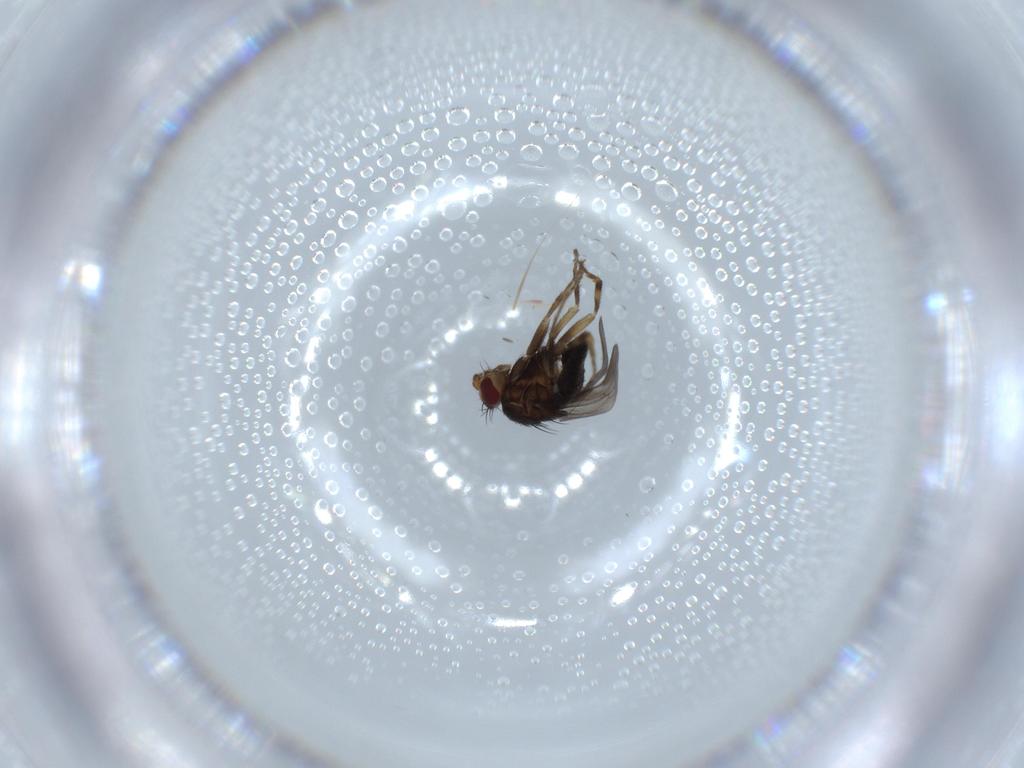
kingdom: Animalia
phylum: Arthropoda
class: Insecta
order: Diptera
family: Sphaeroceridae
